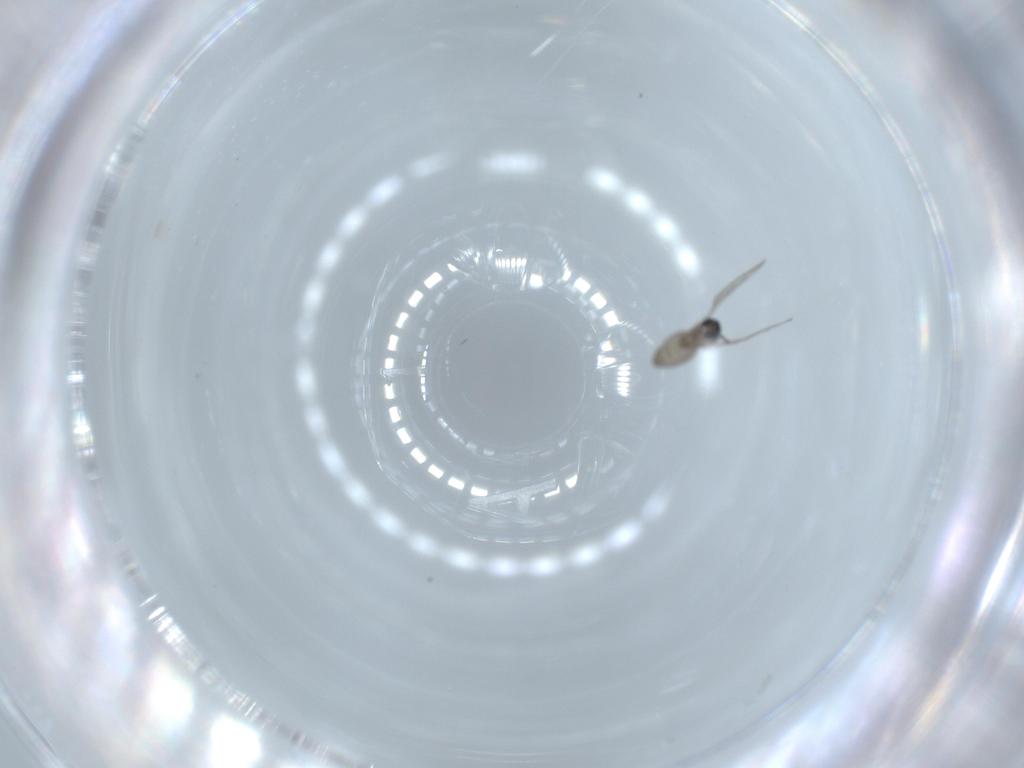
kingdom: Animalia
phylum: Arthropoda
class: Insecta
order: Diptera
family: Cecidomyiidae
